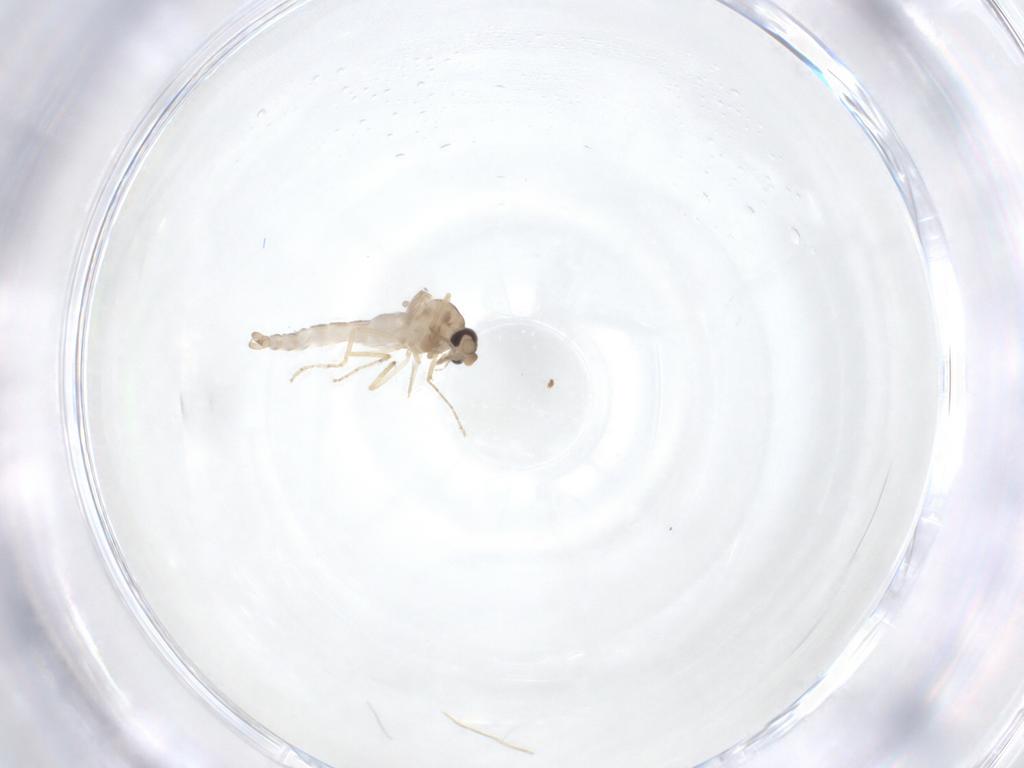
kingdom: Animalia
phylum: Arthropoda
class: Insecta
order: Diptera
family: Ceratopogonidae
